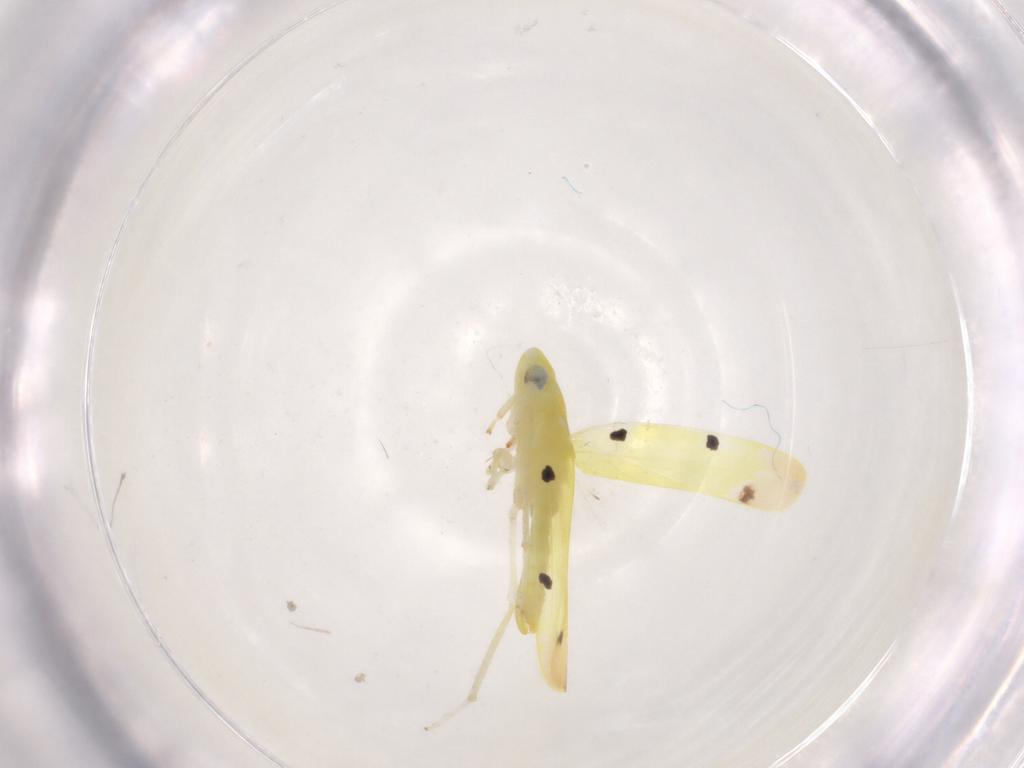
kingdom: Animalia
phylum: Arthropoda
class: Insecta
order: Hemiptera
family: Cicadellidae
